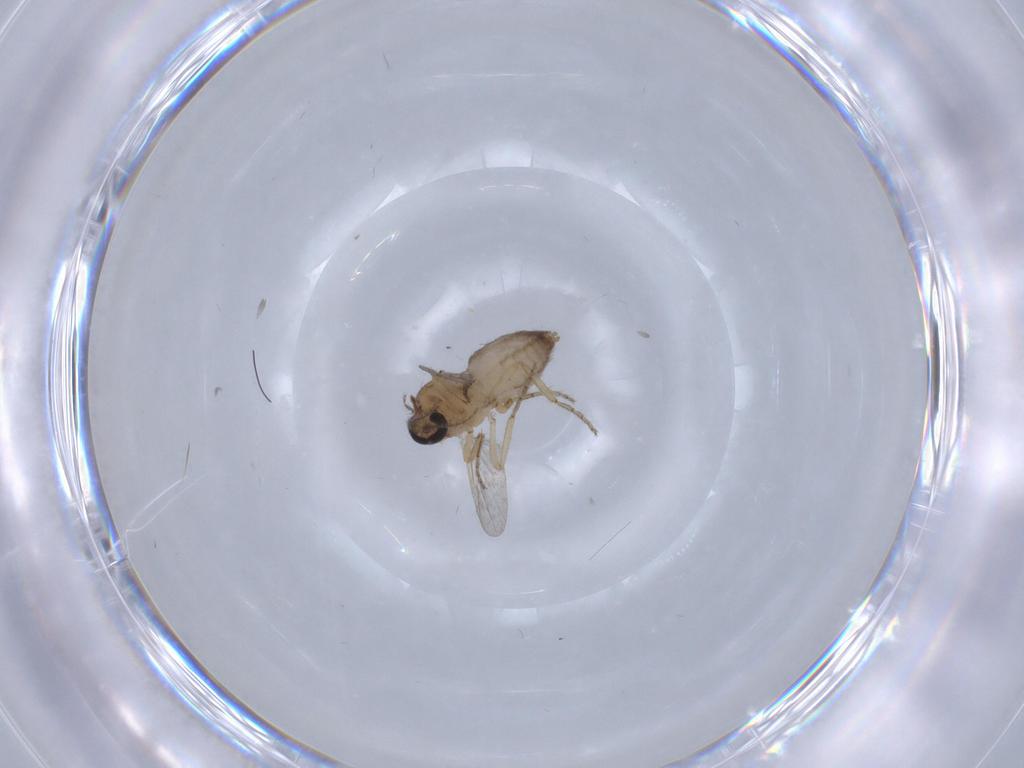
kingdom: Animalia
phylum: Arthropoda
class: Insecta
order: Diptera
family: Ceratopogonidae
